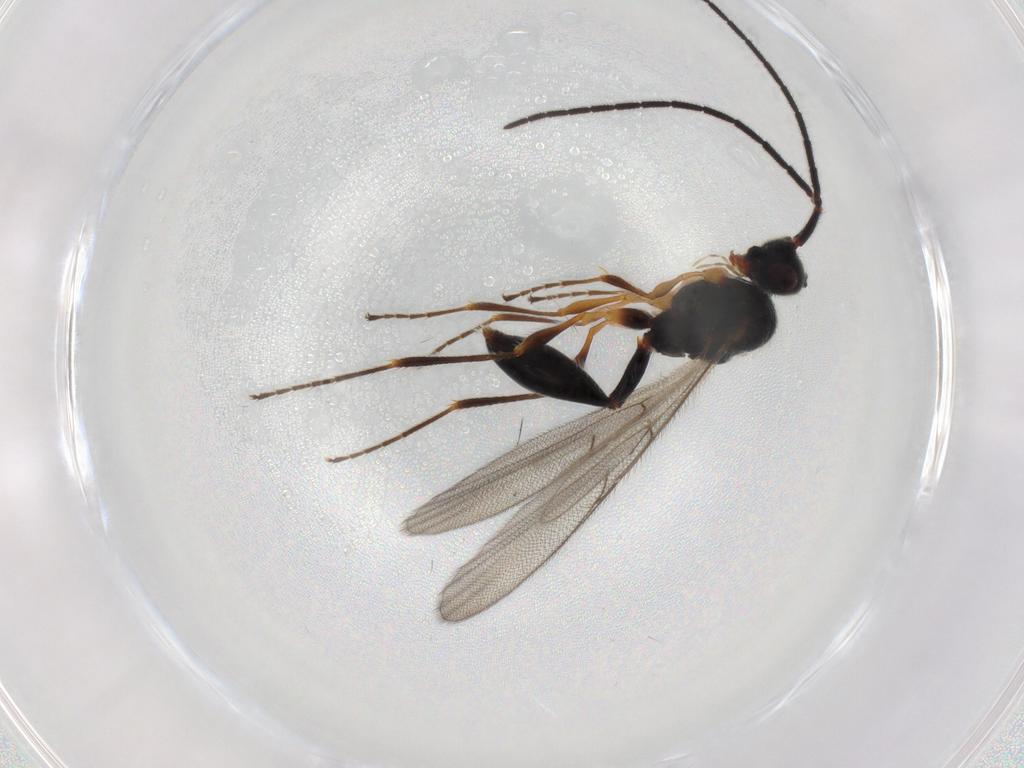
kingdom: Animalia
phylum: Arthropoda
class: Insecta
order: Hymenoptera
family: Diapriidae
